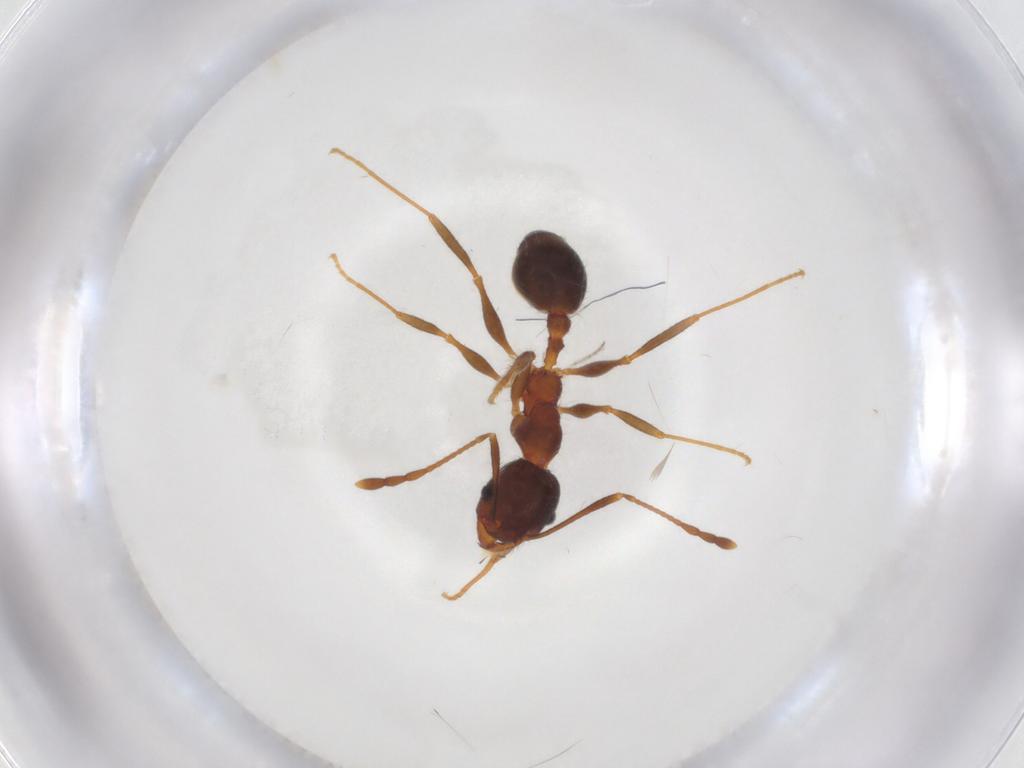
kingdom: Animalia
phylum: Arthropoda
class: Insecta
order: Hymenoptera
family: Formicidae
